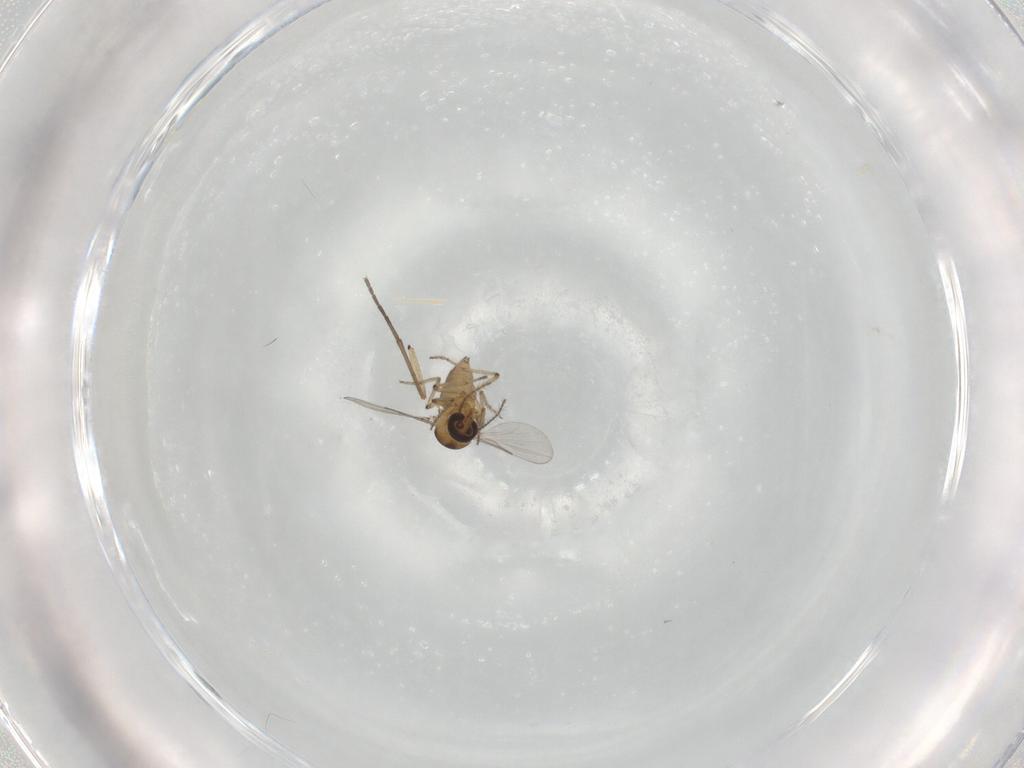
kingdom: Animalia
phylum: Arthropoda
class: Insecta
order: Diptera
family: Ceratopogonidae
